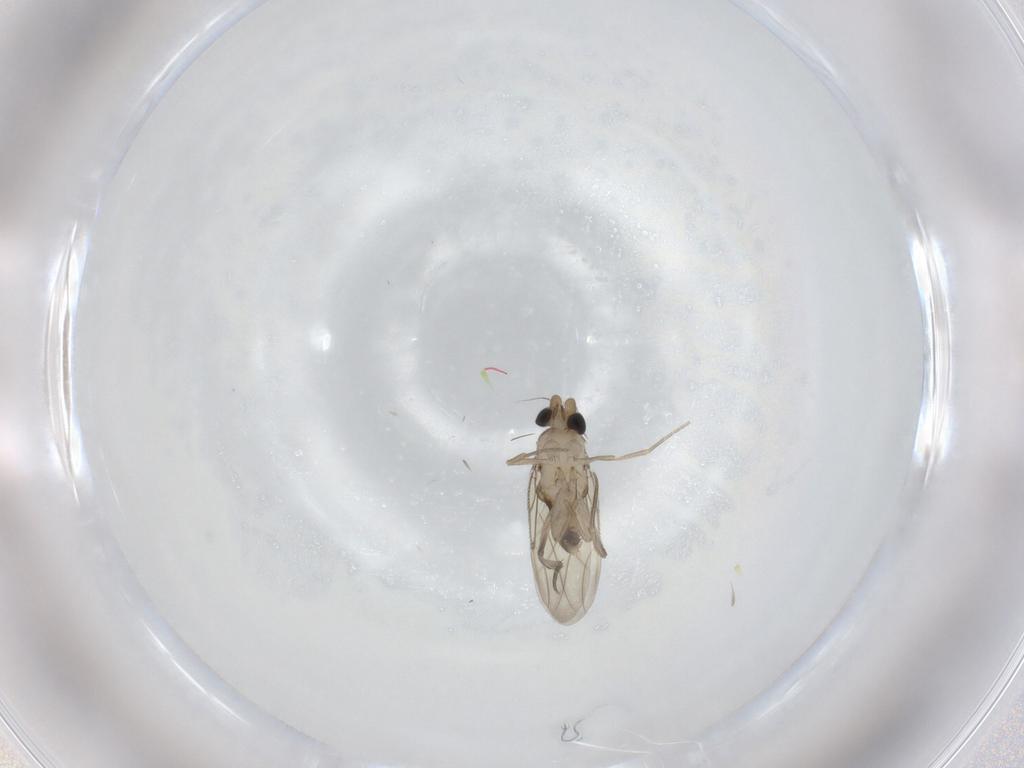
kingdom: Animalia
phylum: Arthropoda
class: Insecta
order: Diptera
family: Phoridae
